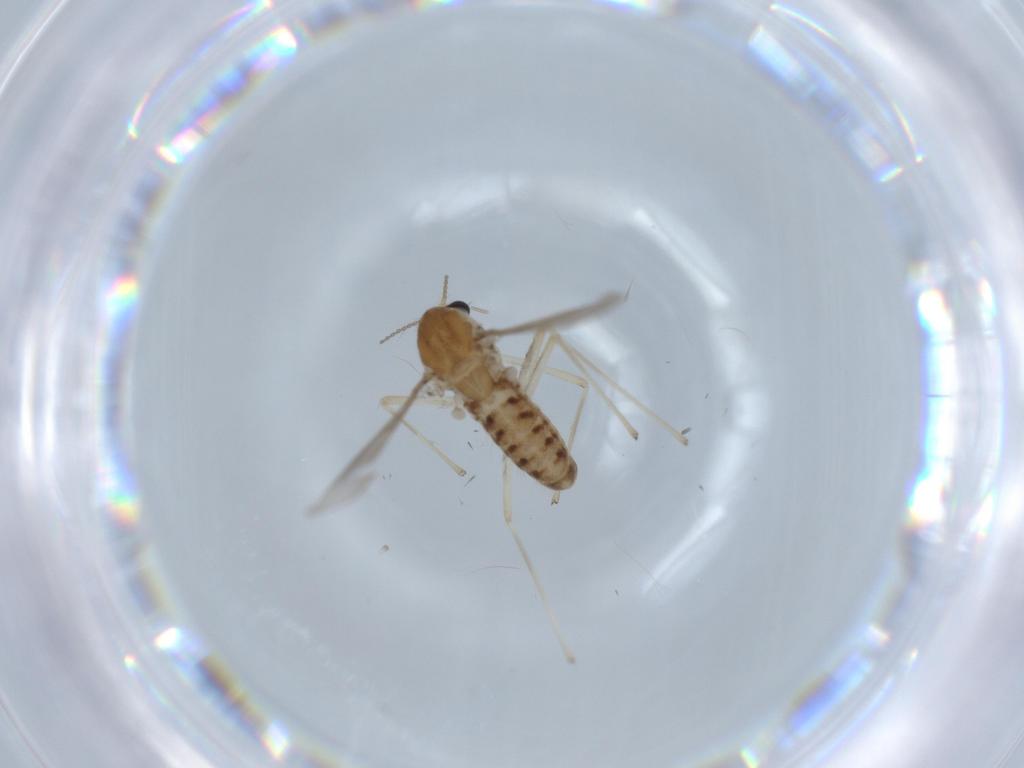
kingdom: Animalia
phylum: Arthropoda
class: Insecta
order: Diptera
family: Chironomidae
